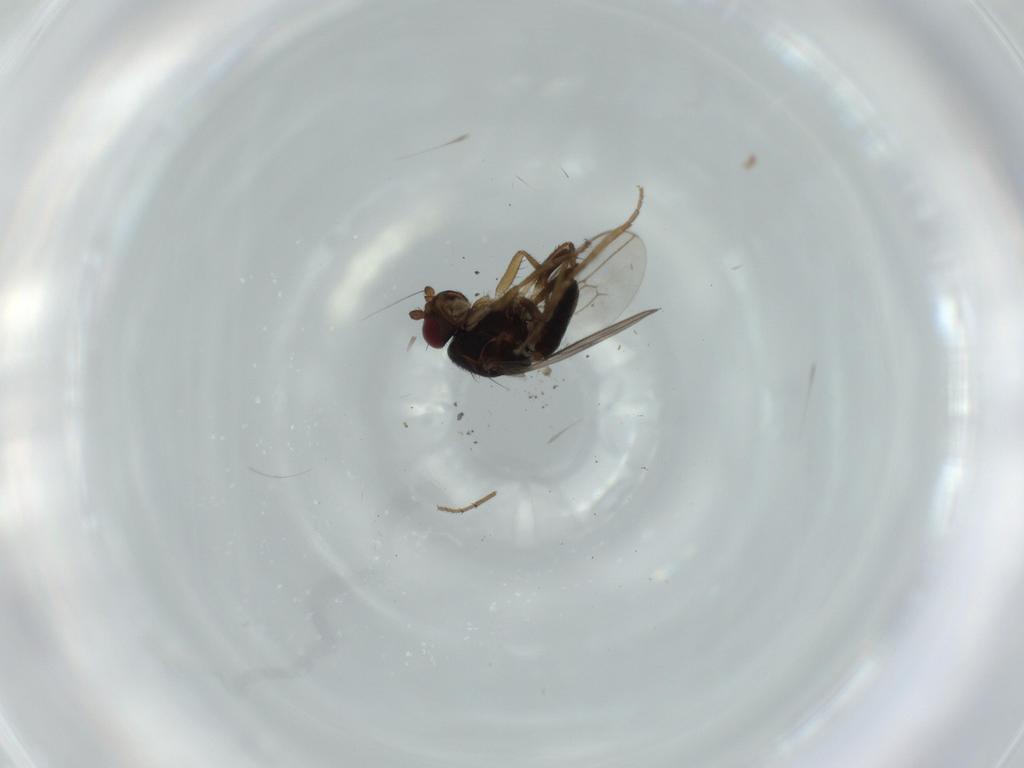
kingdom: Animalia
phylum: Arthropoda
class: Insecta
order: Diptera
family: Sphaeroceridae
